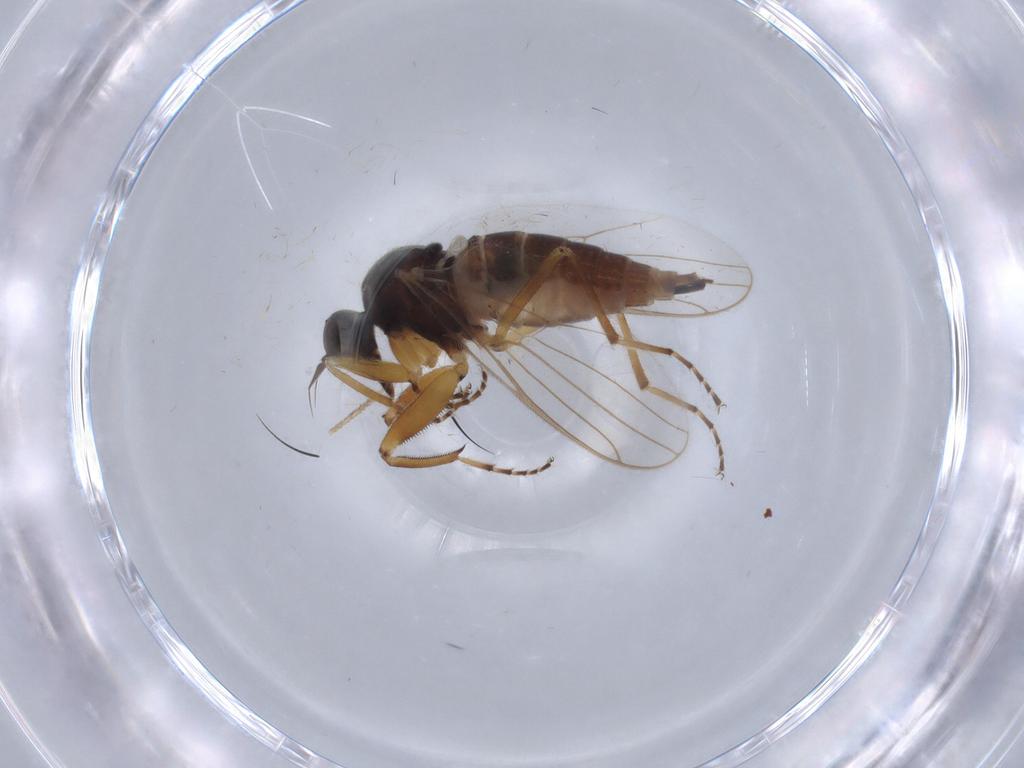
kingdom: Animalia
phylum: Arthropoda
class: Insecta
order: Diptera
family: Hybotidae
